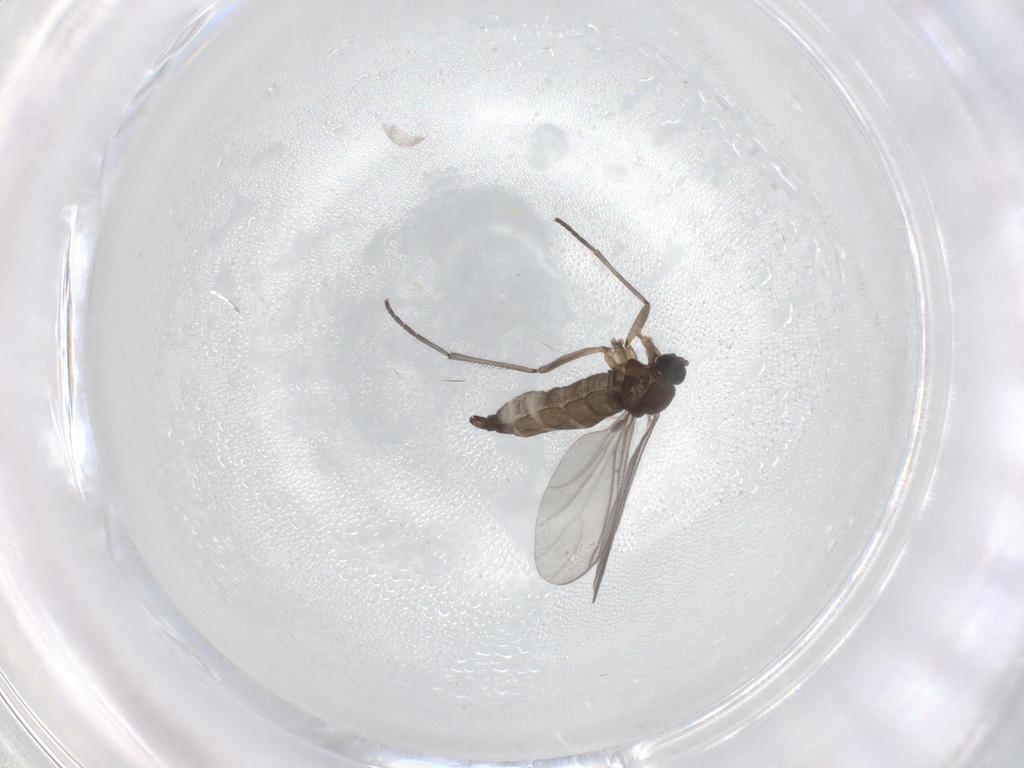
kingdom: Animalia
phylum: Arthropoda
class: Insecta
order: Diptera
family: Sciaridae
